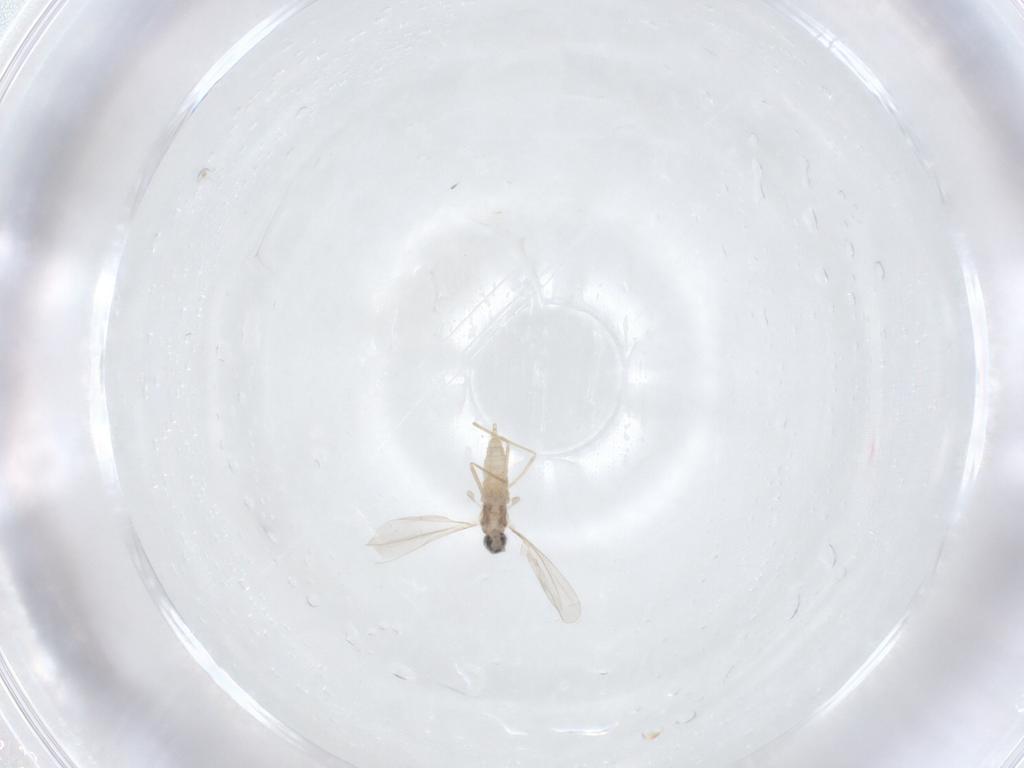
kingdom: Animalia
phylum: Arthropoda
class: Insecta
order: Diptera
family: Cecidomyiidae
